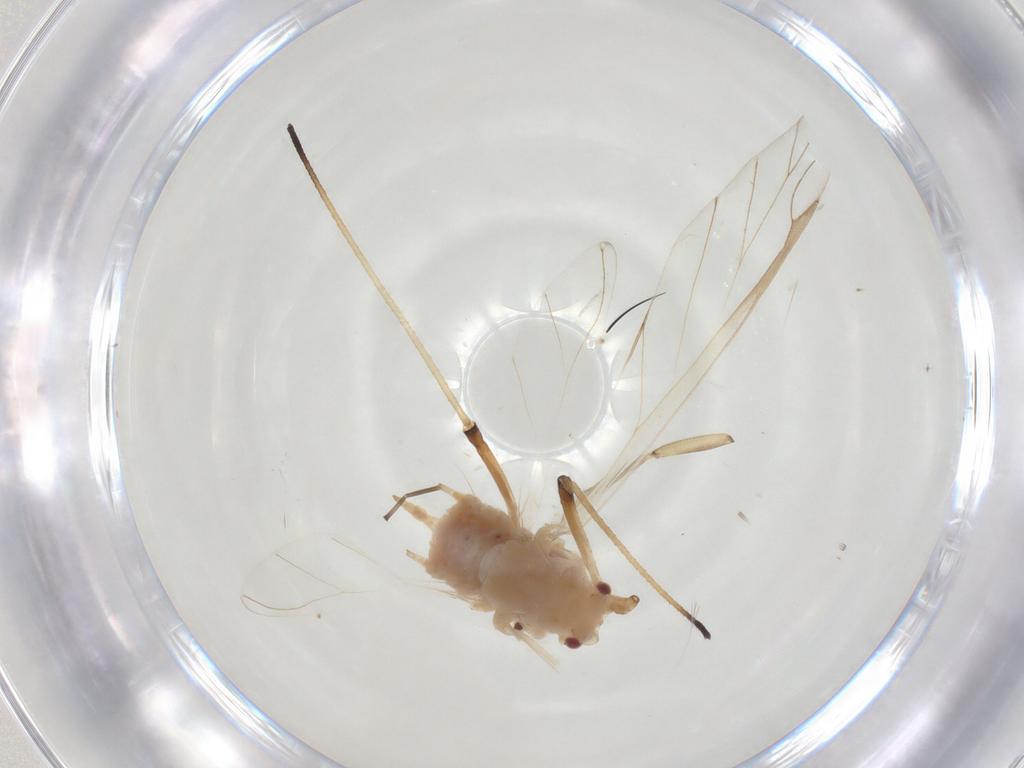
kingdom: Animalia
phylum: Arthropoda
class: Insecta
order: Hemiptera
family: Aphididae
